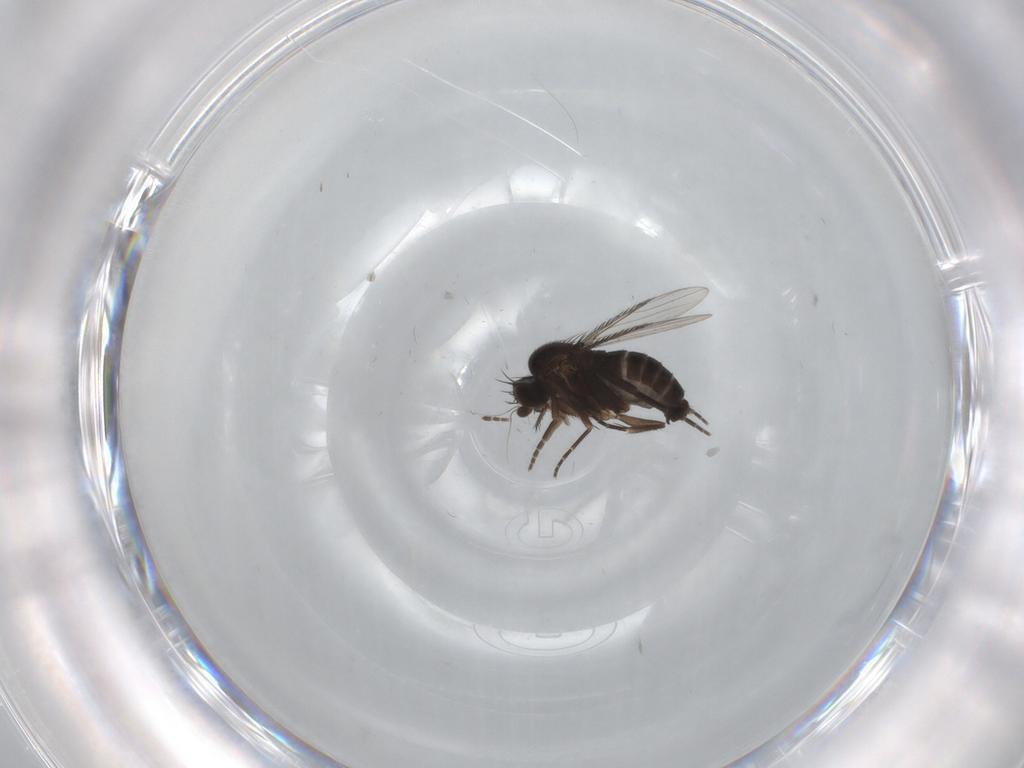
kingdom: Animalia
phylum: Arthropoda
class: Insecta
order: Diptera
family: Phoridae
